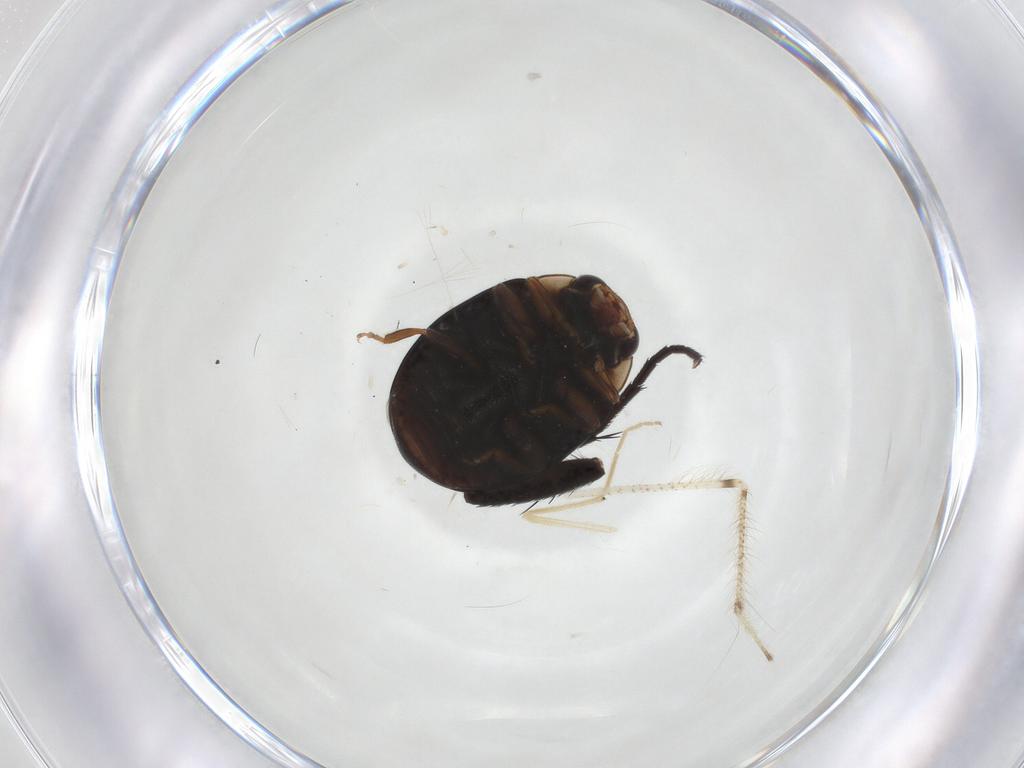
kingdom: Animalia
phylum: Arthropoda
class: Insecta
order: Coleoptera
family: Coccinellidae
